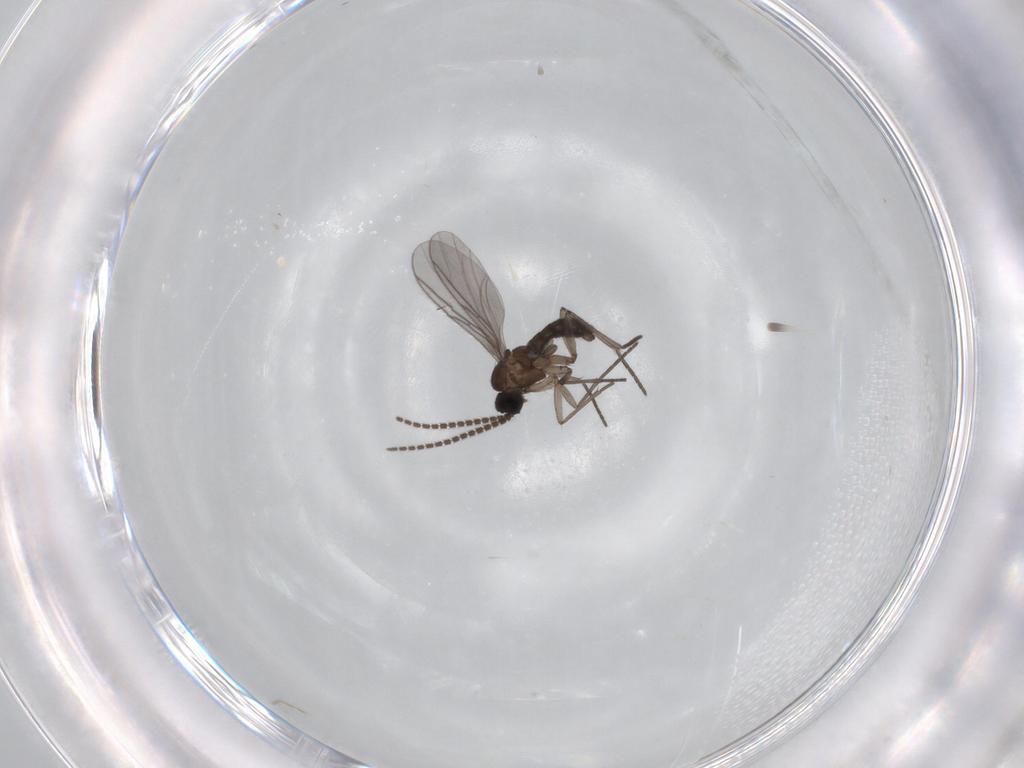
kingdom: Animalia
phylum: Arthropoda
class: Insecta
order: Diptera
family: Sciaridae
